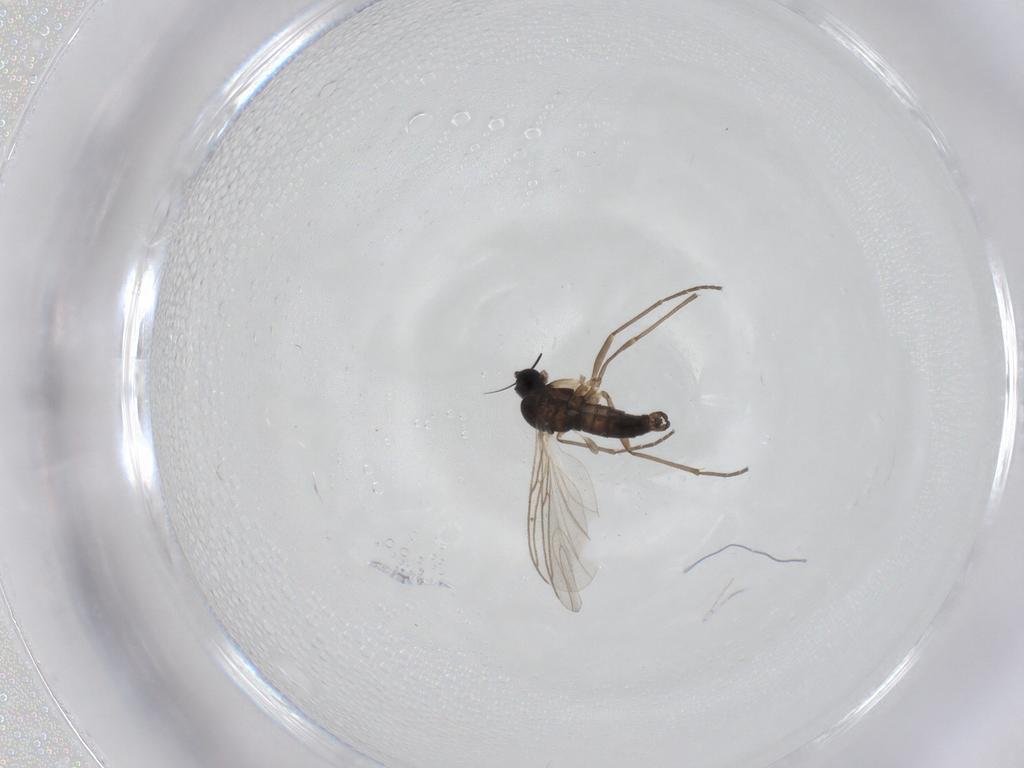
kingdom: Animalia
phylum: Arthropoda
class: Insecta
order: Diptera
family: Sciaridae
